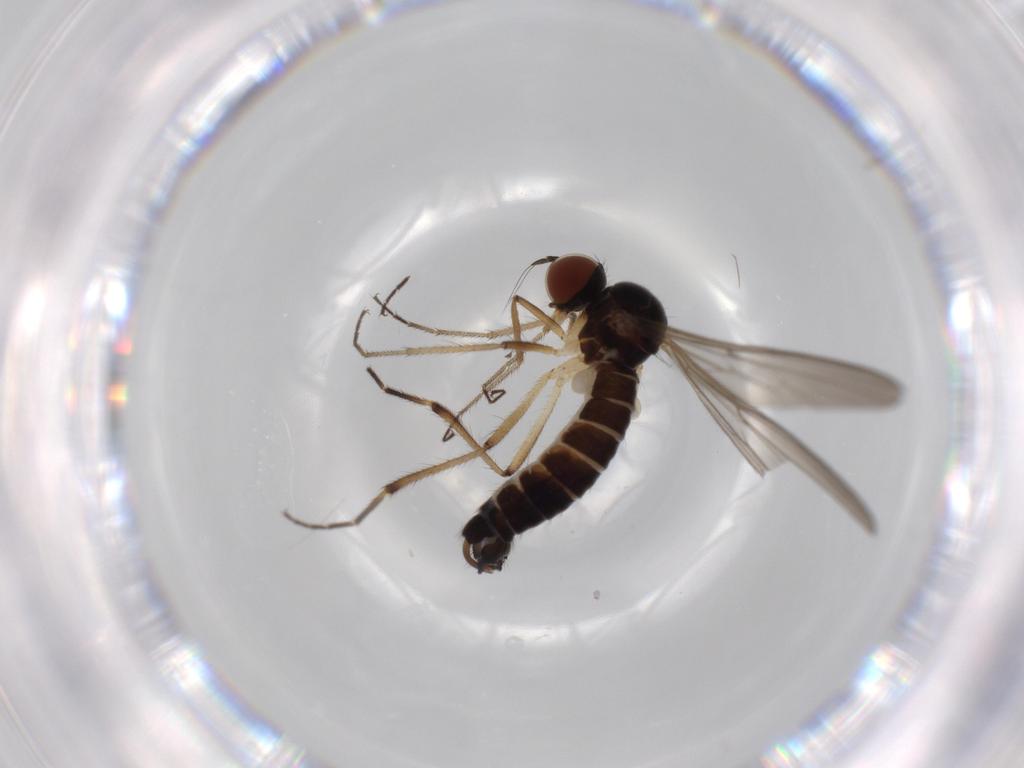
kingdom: Animalia
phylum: Arthropoda
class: Insecta
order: Diptera
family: Hybotidae
